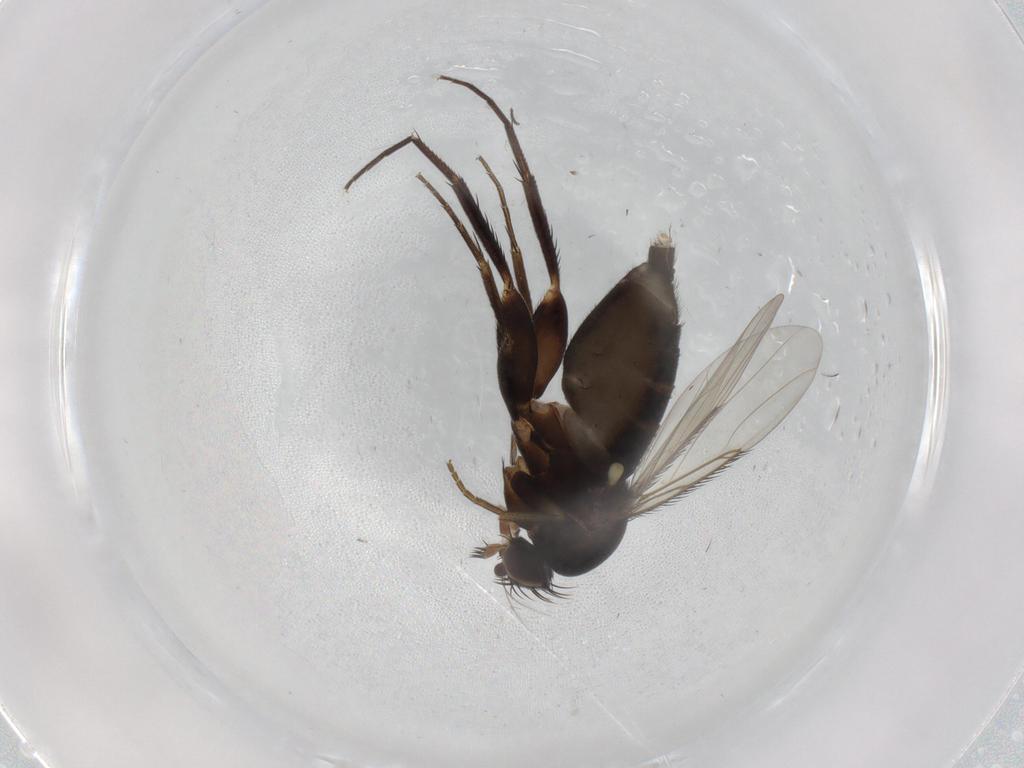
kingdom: Animalia
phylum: Arthropoda
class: Insecta
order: Diptera
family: Phoridae
